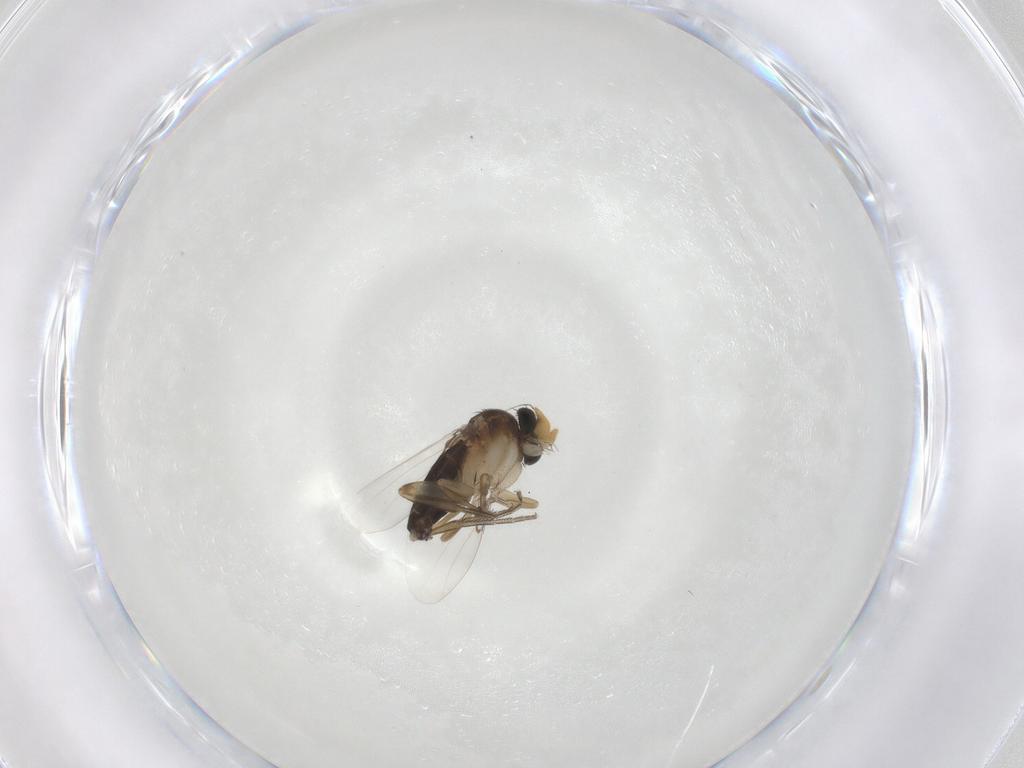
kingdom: Animalia
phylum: Arthropoda
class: Insecta
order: Diptera
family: Phoridae
